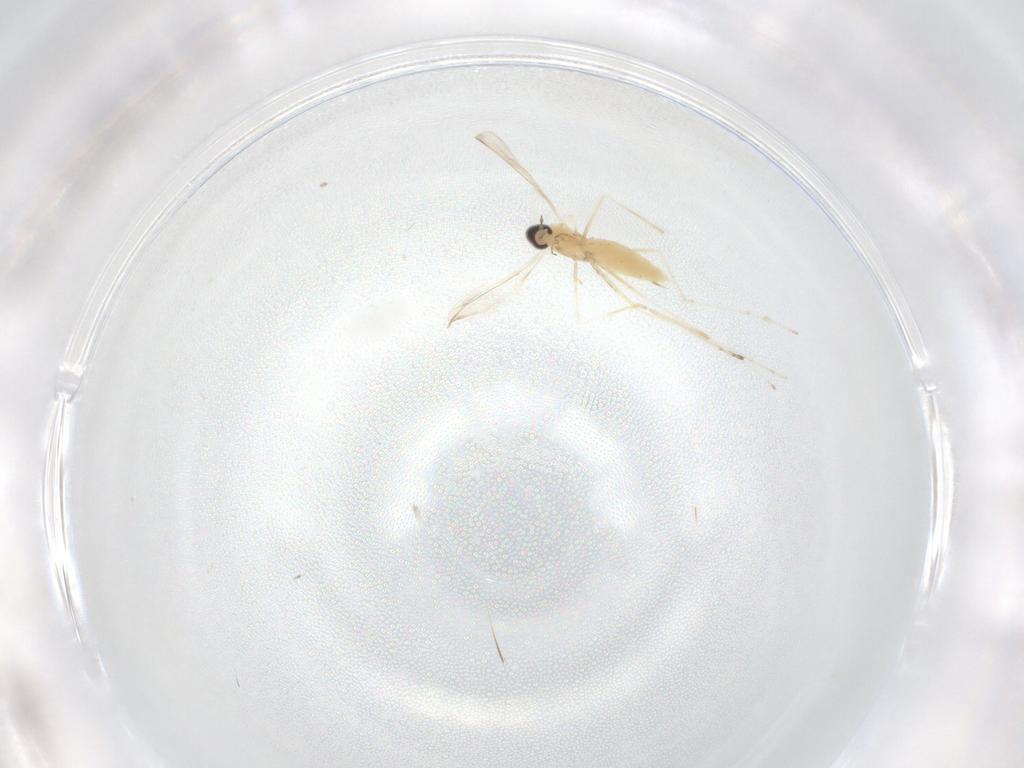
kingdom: Animalia
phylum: Arthropoda
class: Insecta
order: Diptera
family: Cecidomyiidae
